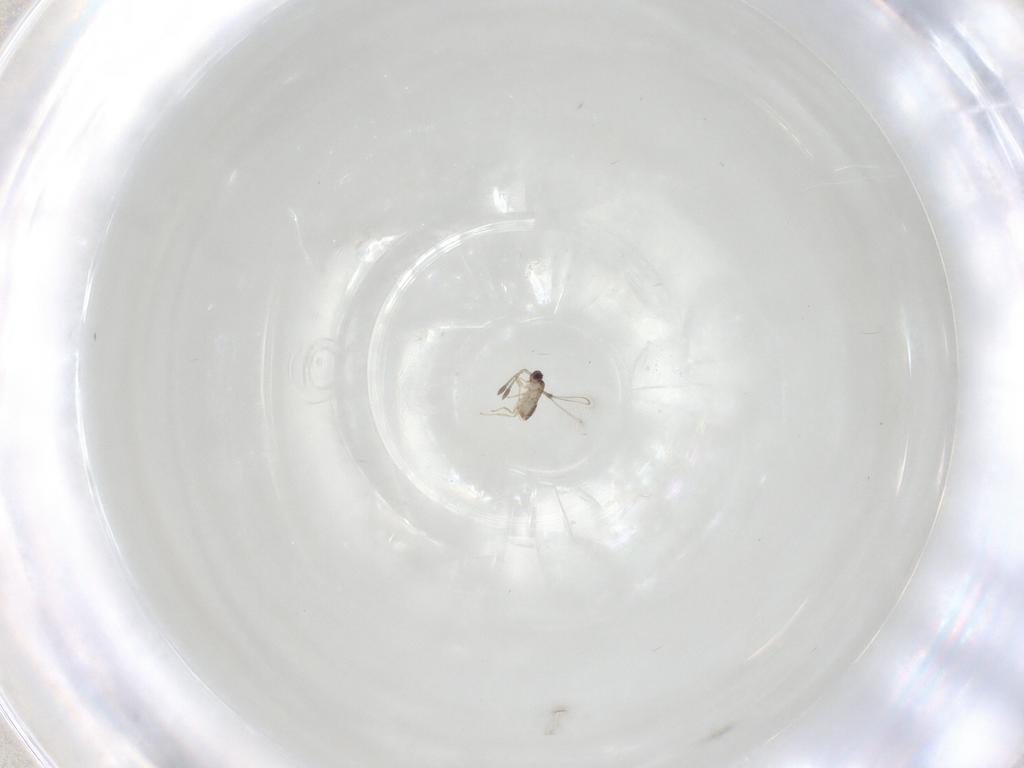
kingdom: Animalia
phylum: Arthropoda
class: Insecta
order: Hymenoptera
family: Mymaridae
